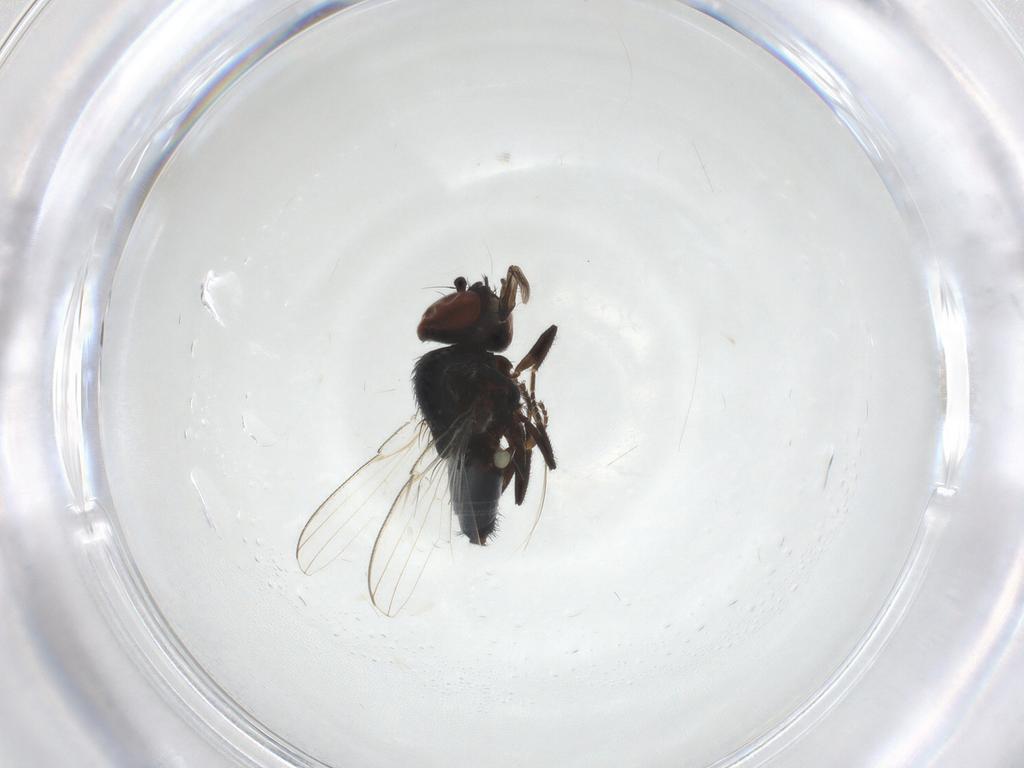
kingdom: Animalia
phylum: Arthropoda
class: Insecta
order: Diptera
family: Milichiidae
